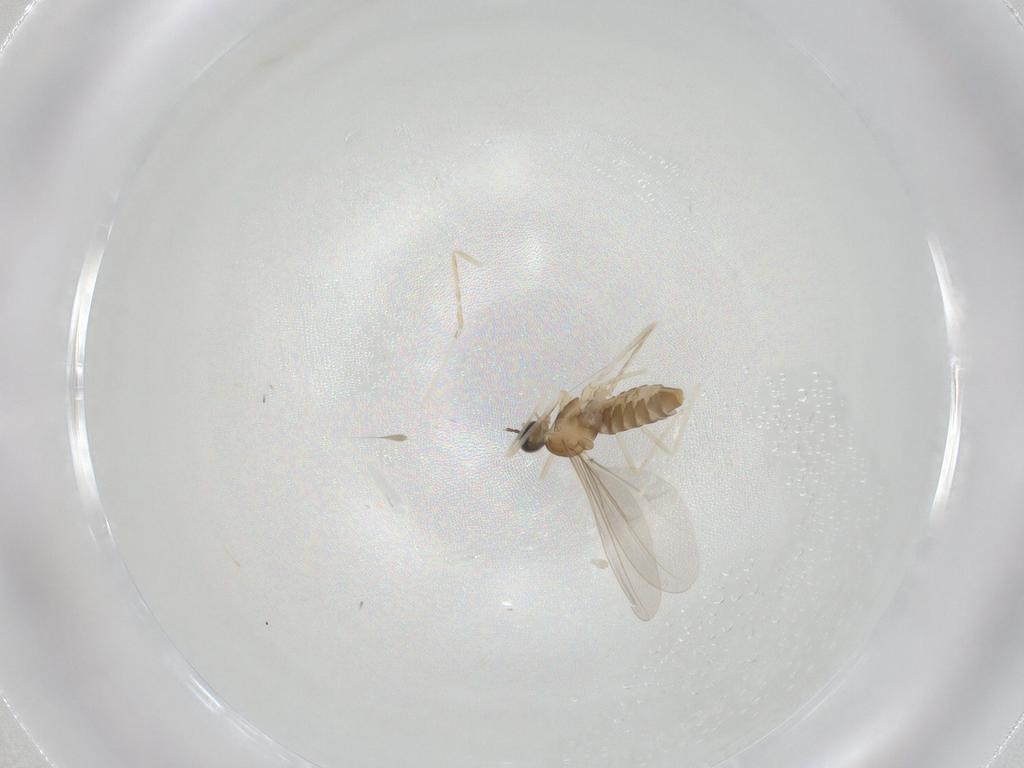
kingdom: Animalia
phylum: Arthropoda
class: Insecta
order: Diptera
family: Cecidomyiidae
